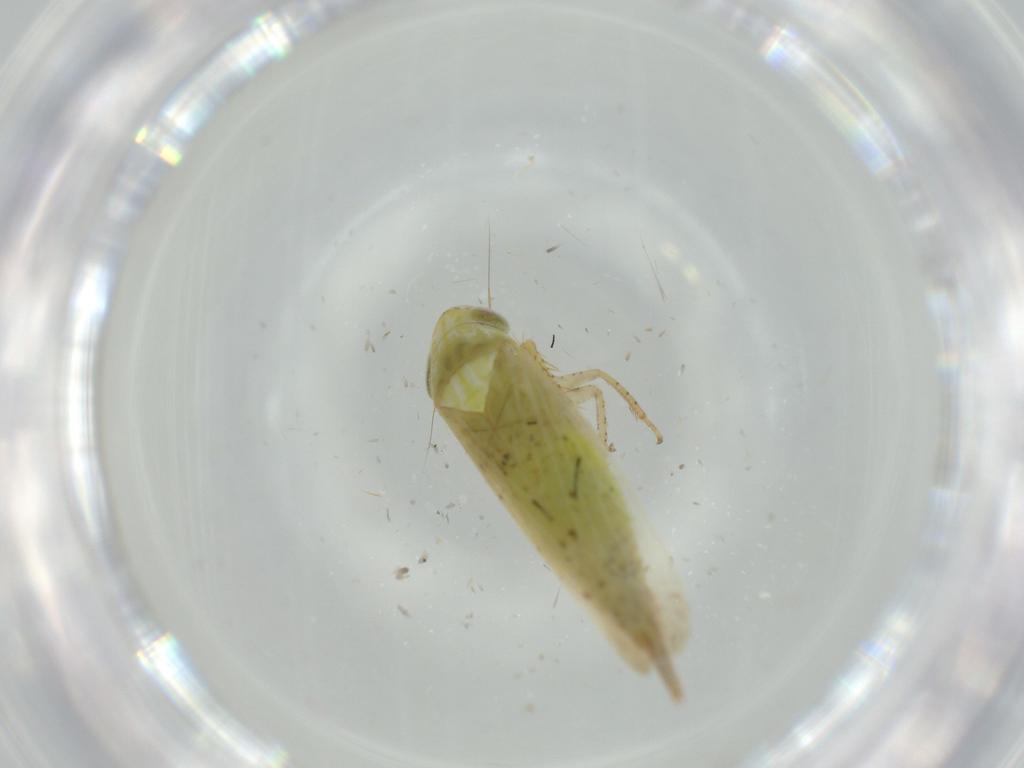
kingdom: Animalia
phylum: Arthropoda
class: Insecta
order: Hemiptera
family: Cicadellidae
